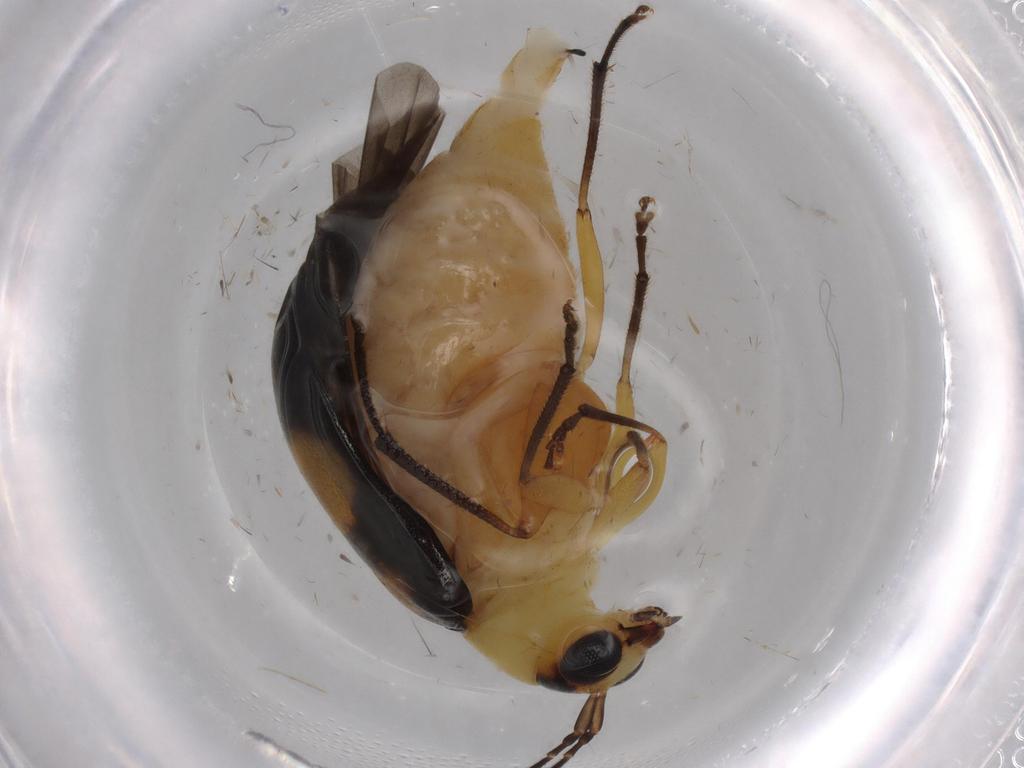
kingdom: Animalia
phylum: Arthropoda
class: Insecta
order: Coleoptera
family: Chrysomelidae
